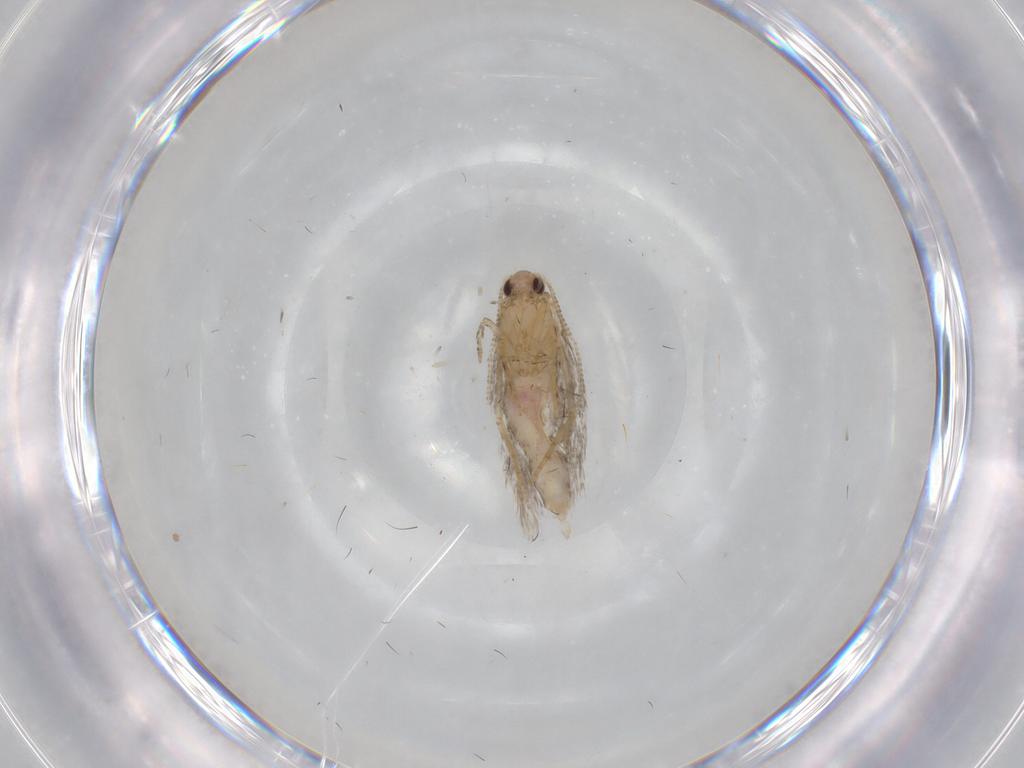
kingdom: Animalia
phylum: Arthropoda
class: Insecta
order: Lepidoptera
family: Tineidae
